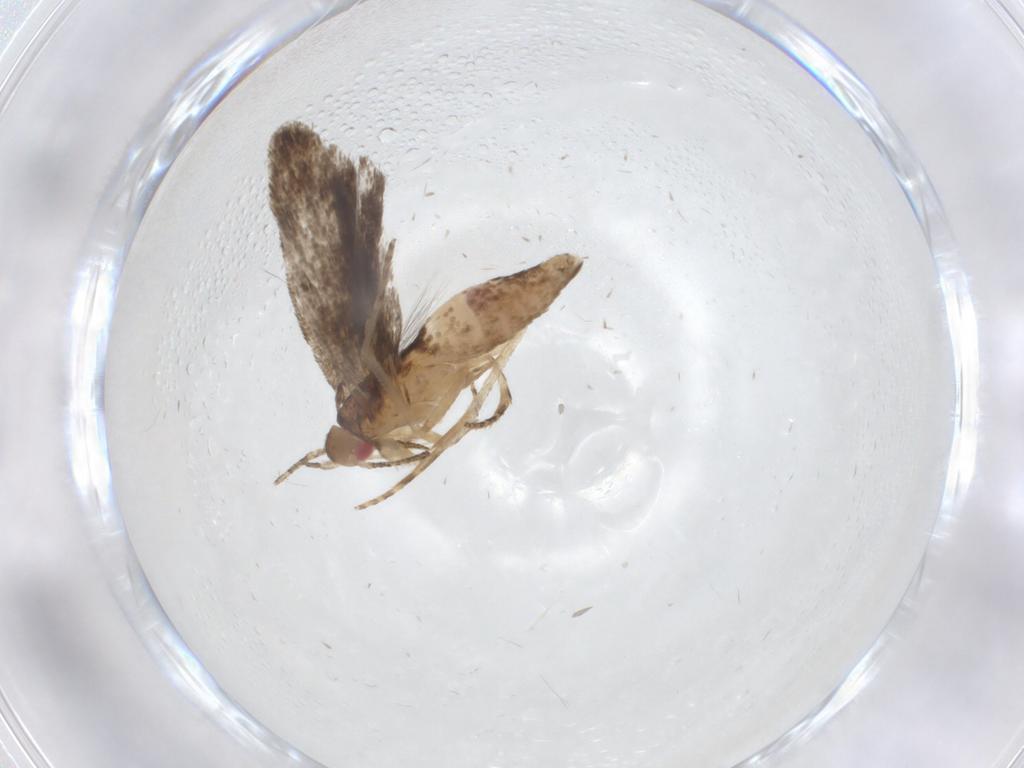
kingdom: Animalia
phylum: Arthropoda
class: Insecta
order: Lepidoptera
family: Gelechiidae
